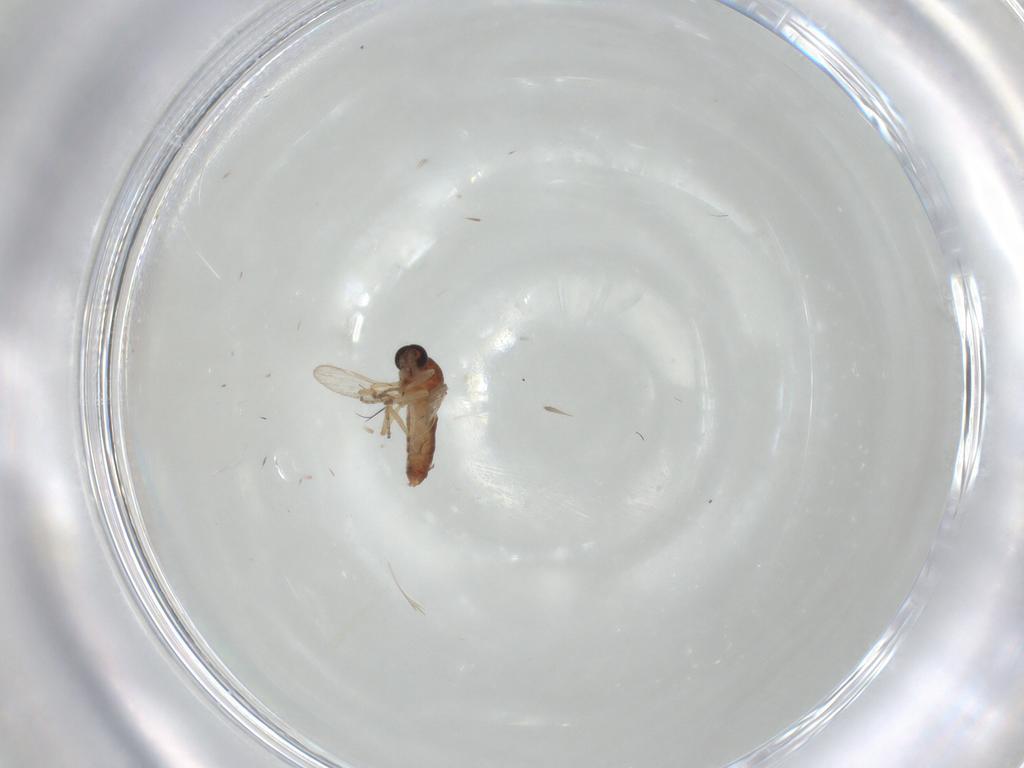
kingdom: Animalia
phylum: Arthropoda
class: Insecta
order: Diptera
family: Ceratopogonidae
